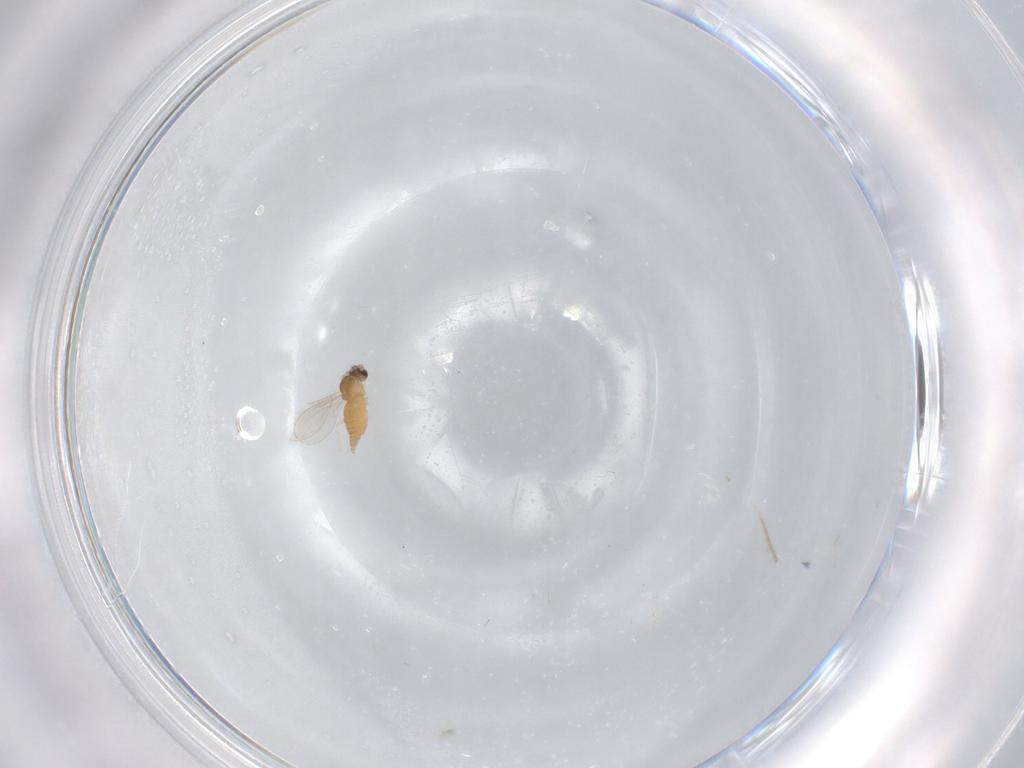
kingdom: Animalia
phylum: Arthropoda
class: Insecta
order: Diptera
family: Cecidomyiidae
